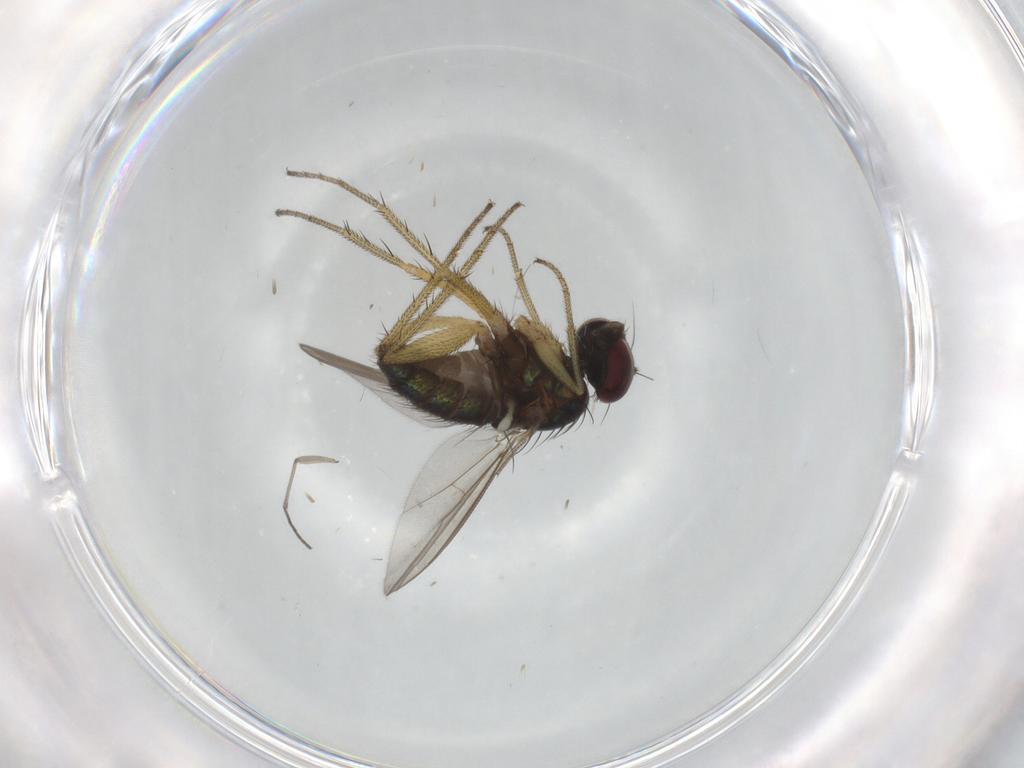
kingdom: Animalia
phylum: Arthropoda
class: Insecta
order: Diptera
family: Sciaridae
